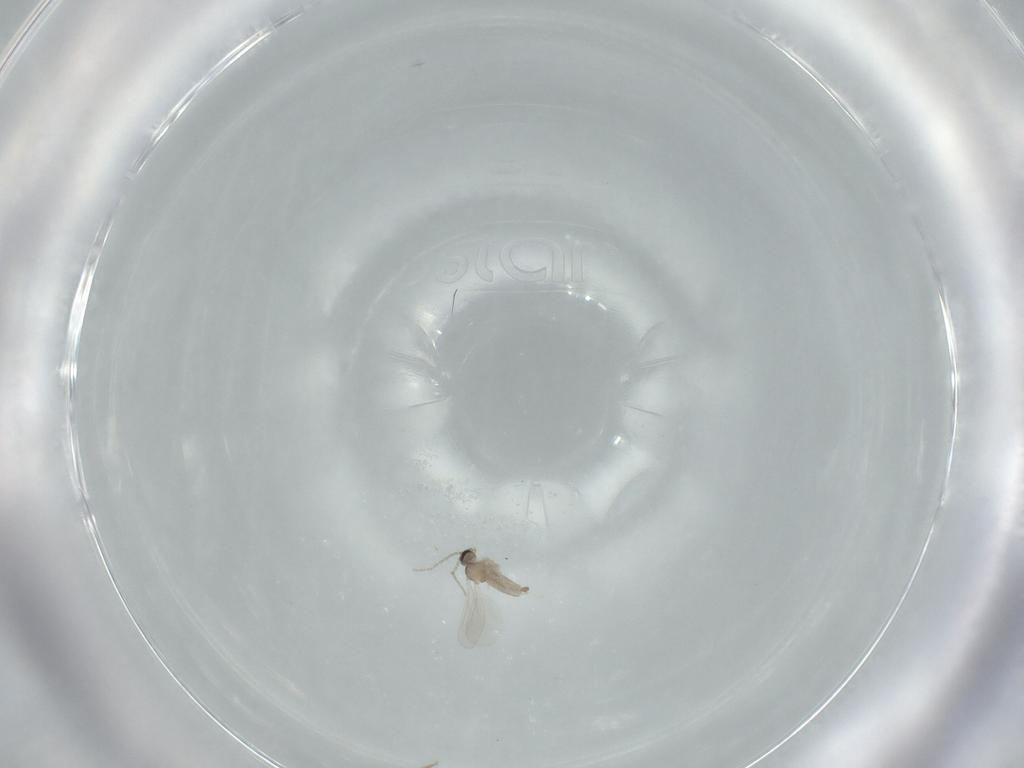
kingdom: Animalia
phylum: Arthropoda
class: Insecta
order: Diptera
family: Cecidomyiidae
